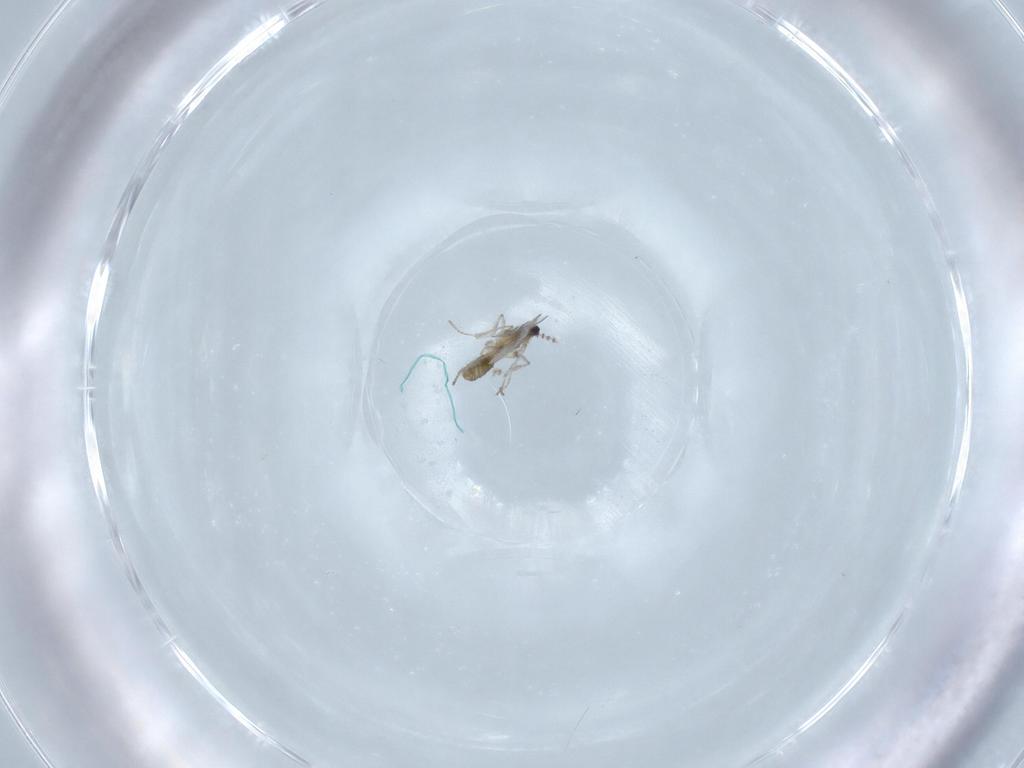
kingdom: Animalia
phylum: Arthropoda
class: Insecta
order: Diptera
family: Cecidomyiidae
